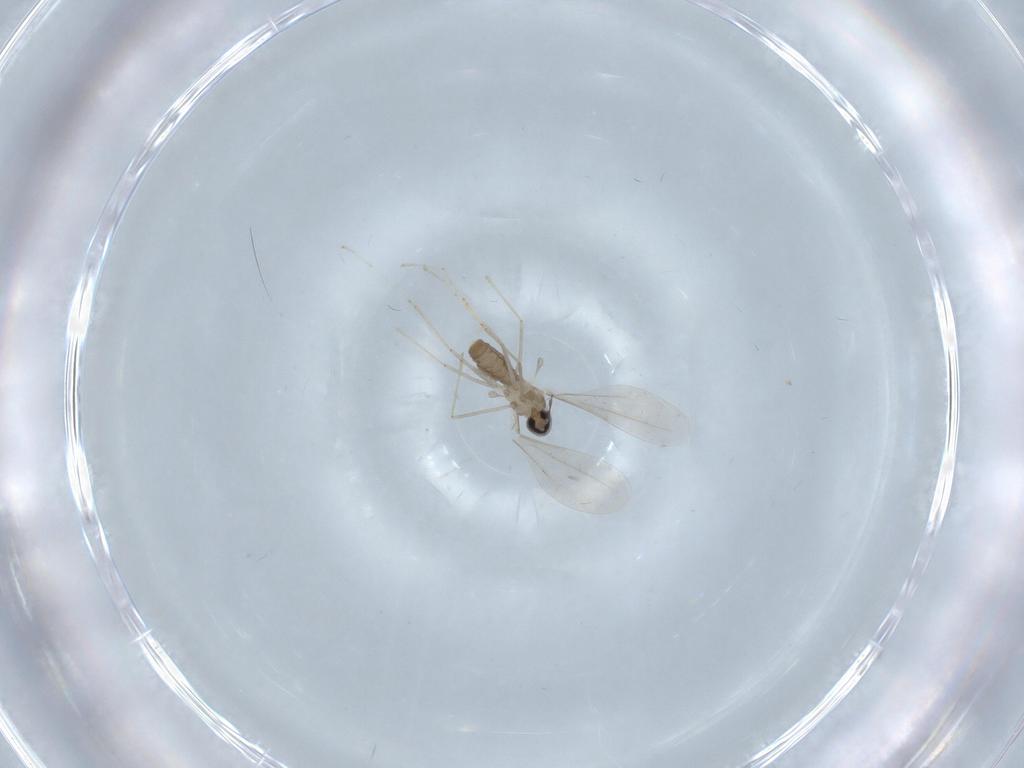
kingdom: Animalia
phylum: Arthropoda
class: Insecta
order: Diptera
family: Cecidomyiidae
